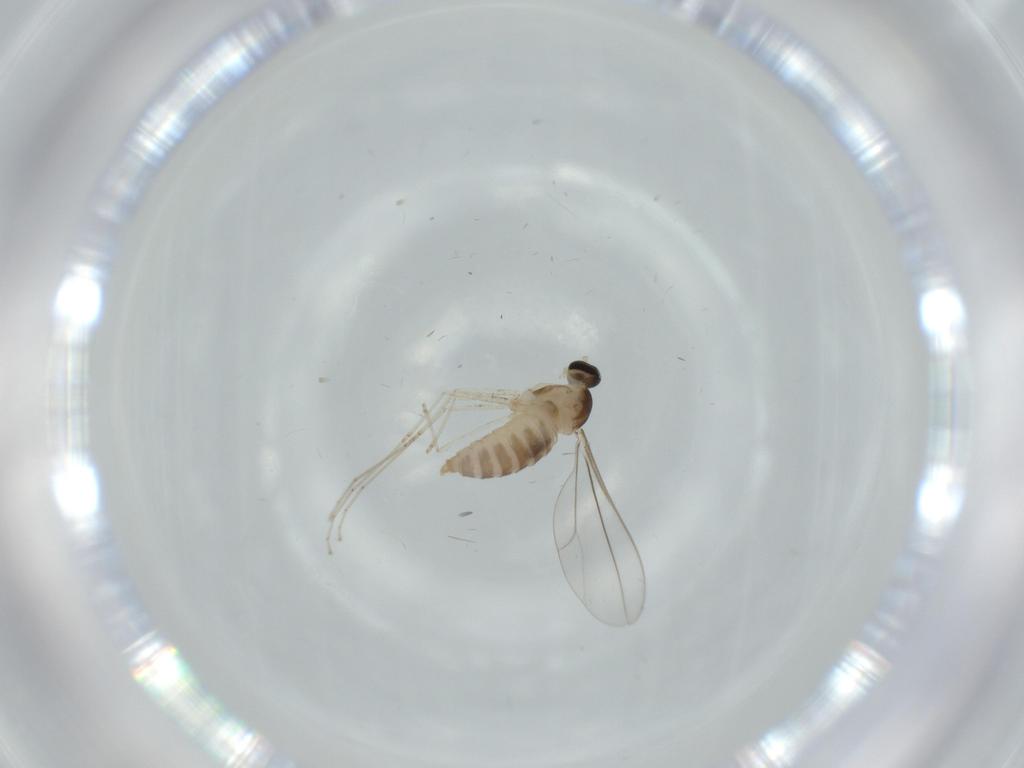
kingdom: Animalia
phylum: Arthropoda
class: Insecta
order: Diptera
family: Cecidomyiidae
